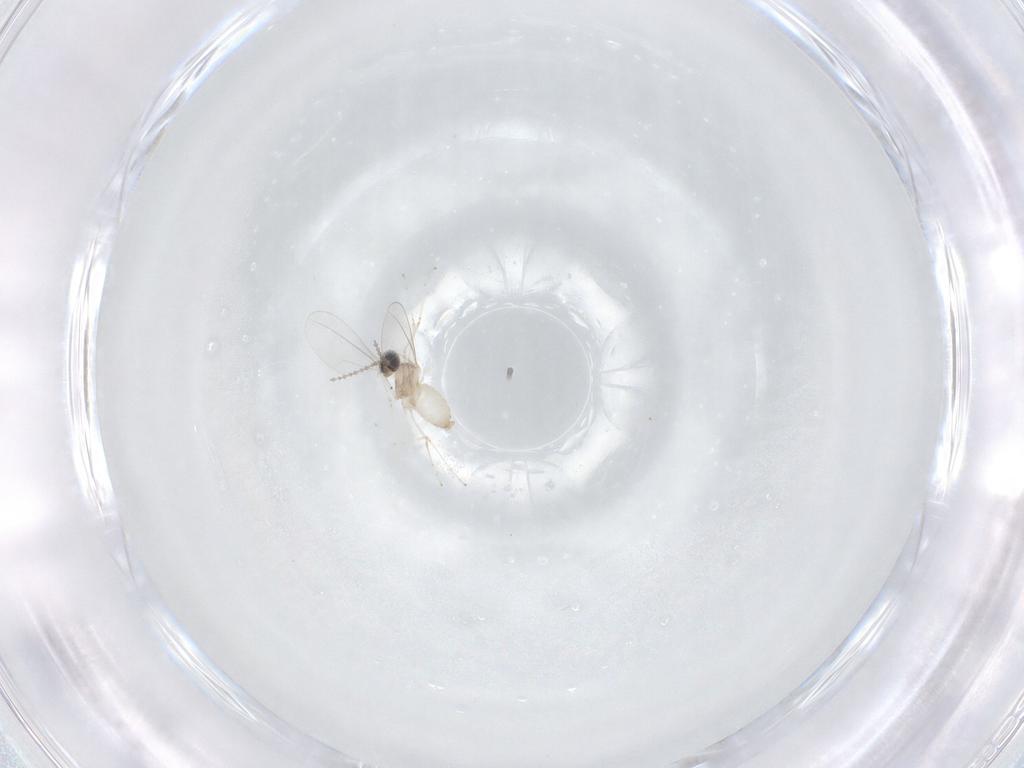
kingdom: Animalia
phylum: Arthropoda
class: Insecta
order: Diptera
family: Cecidomyiidae
